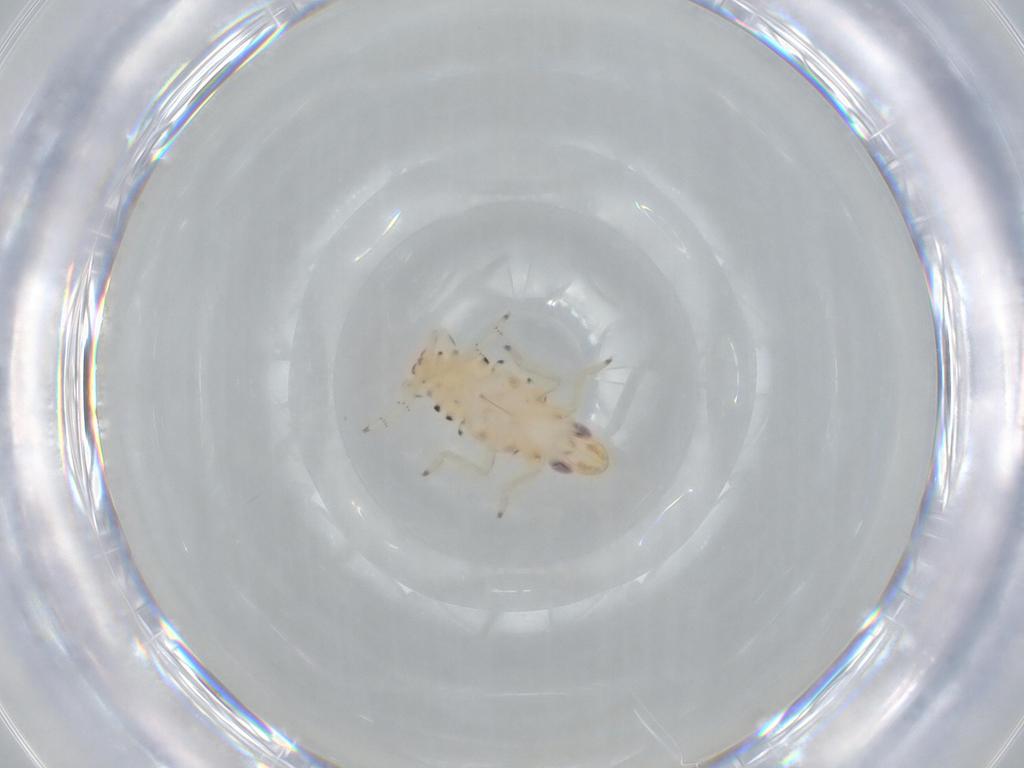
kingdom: Animalia
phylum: Arthropoda
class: Insecta
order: Hemiptera
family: Tropiduchidae
